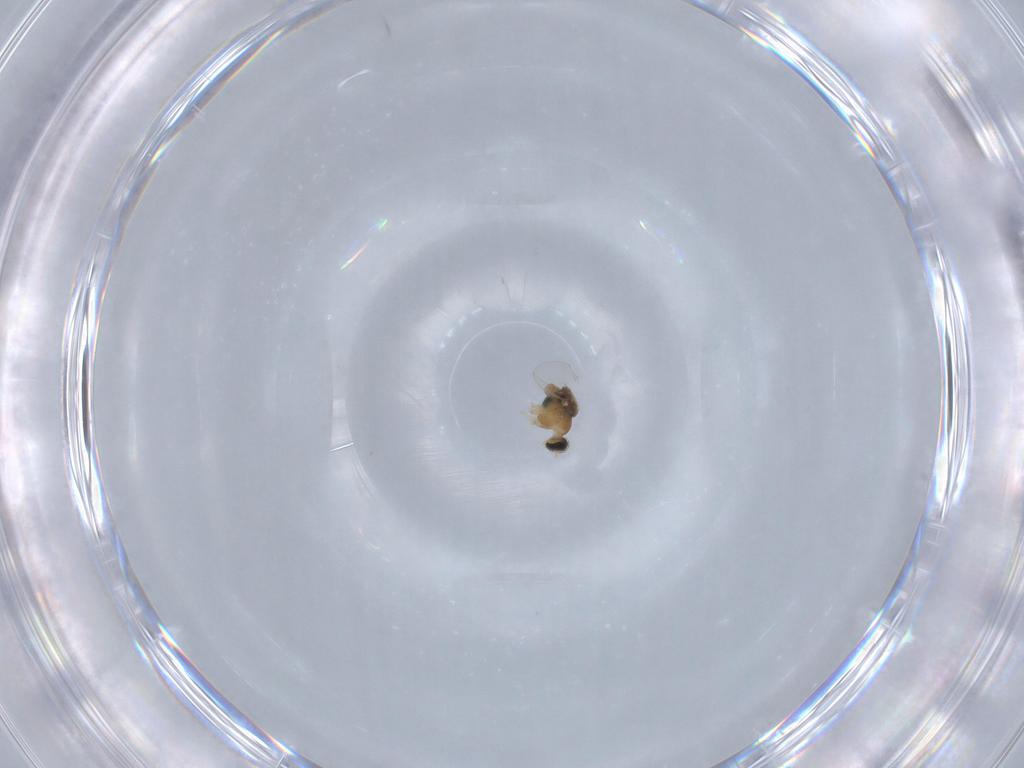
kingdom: Animalia
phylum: Arthropoda
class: Insecta
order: Diptera
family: Cecidomyiidae
